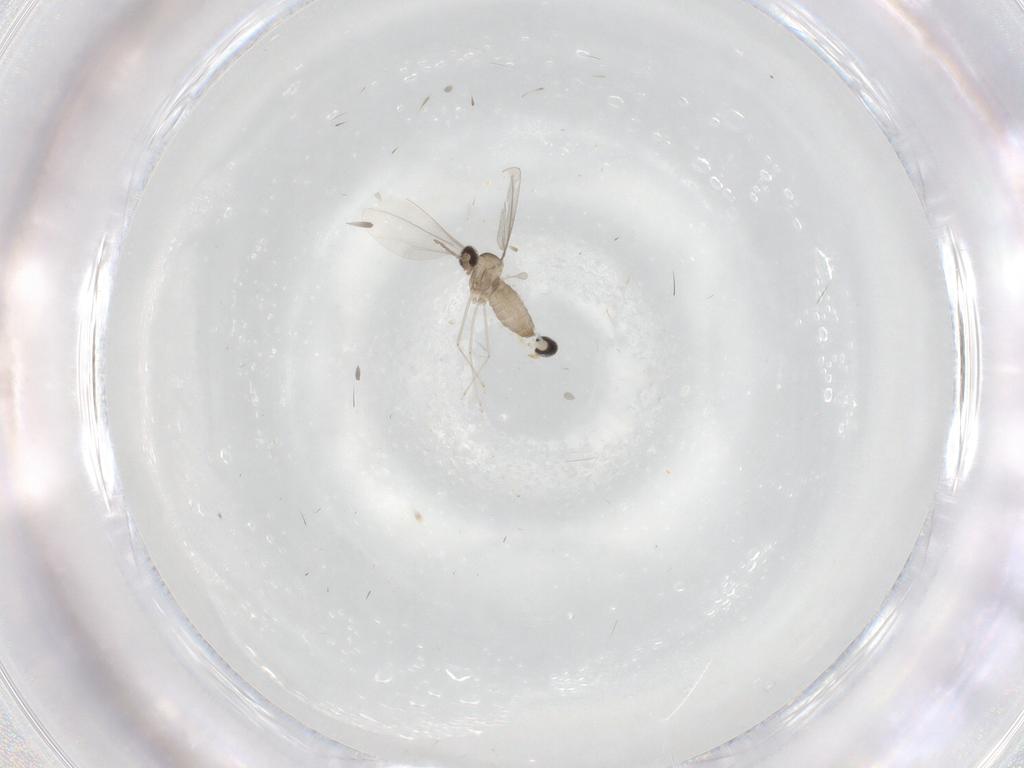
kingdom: Animalia
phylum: Arthropoda
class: Insecta
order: Diptera
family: Cecidomyiidae
